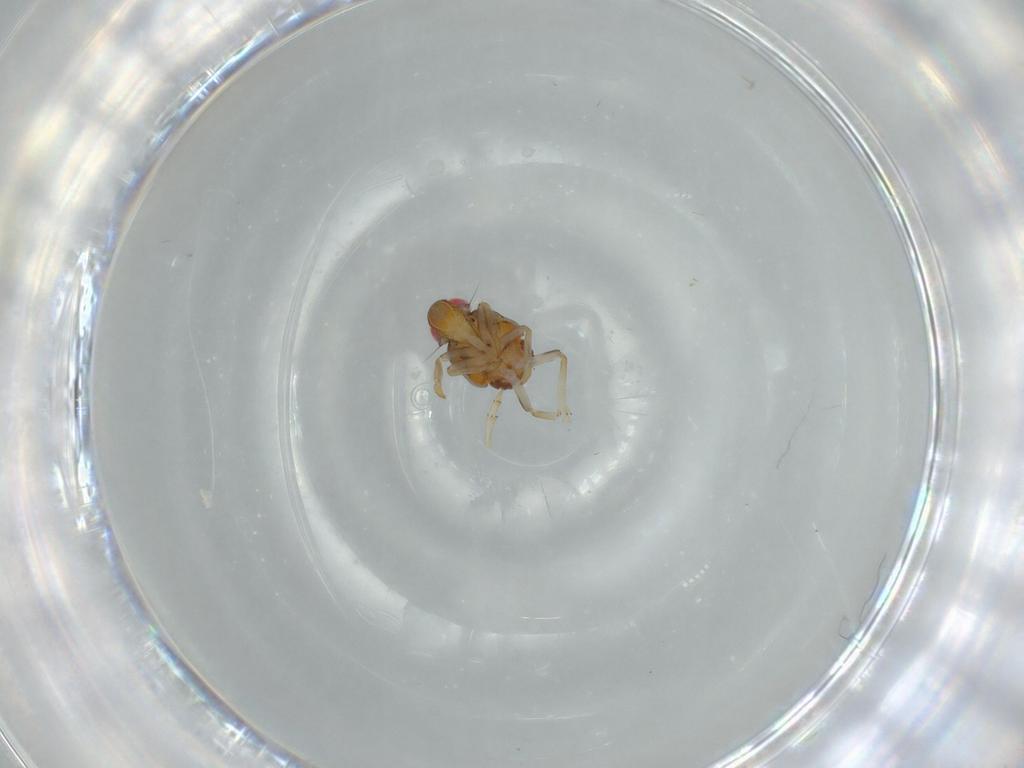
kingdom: Animalia
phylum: Arthropoda
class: Insecta
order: Hemiptera
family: Issidae
